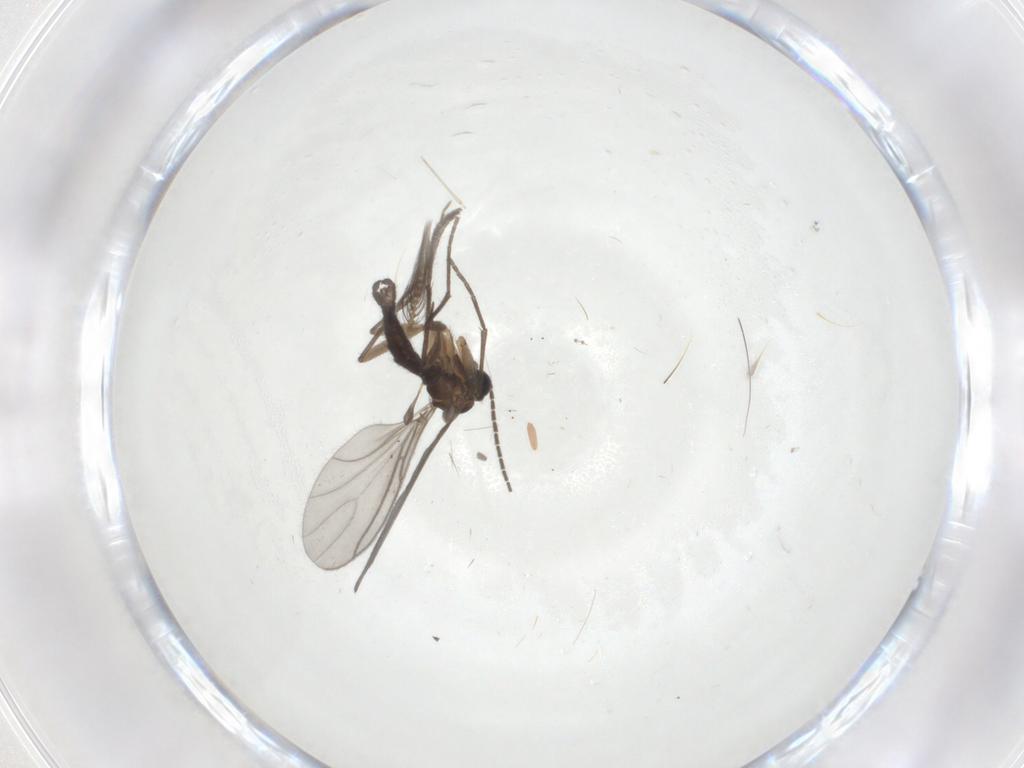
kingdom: Animalia
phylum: Arthropoda
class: Insecta
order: Diptera
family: Sciaridae
